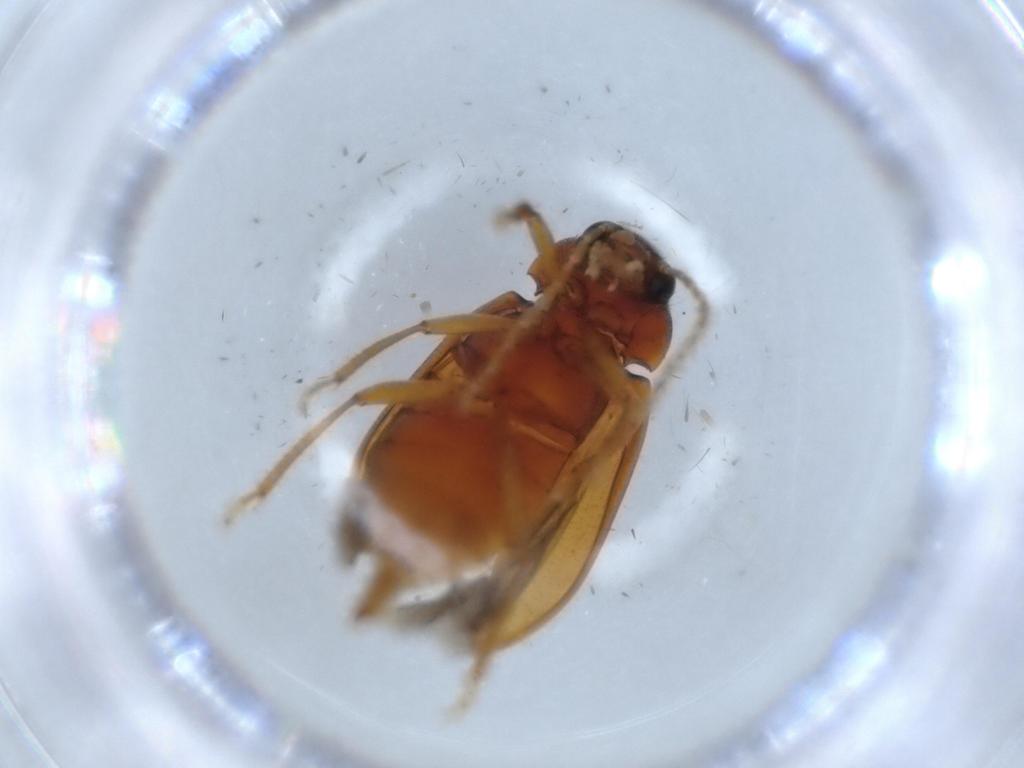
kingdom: Animalia
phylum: Arthropoda
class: Insecta
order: Coleoptera
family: Ptilodactylidae
